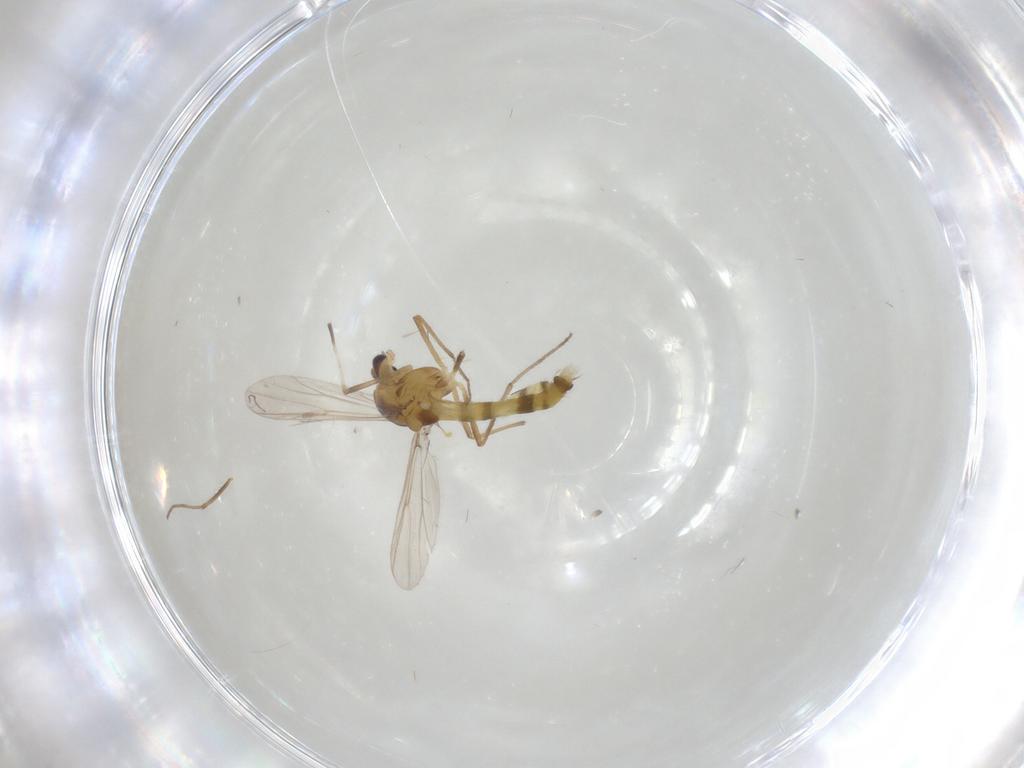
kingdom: Animalia
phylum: Arthropoda
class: Insecta
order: Diptera
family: Chironomidae
